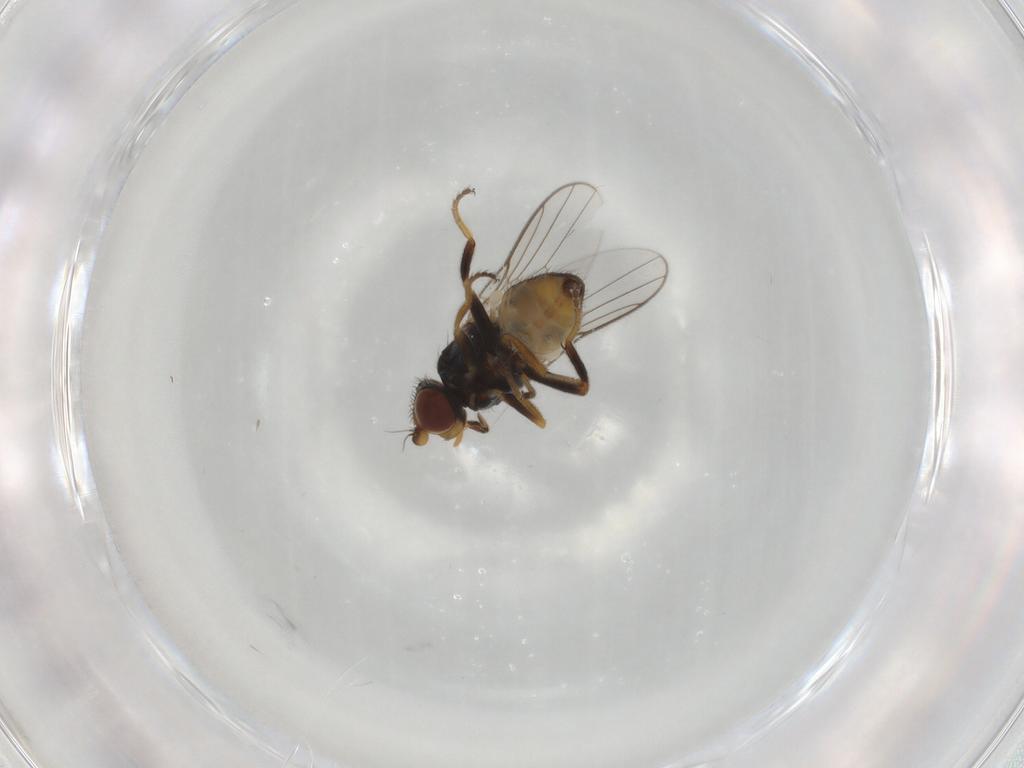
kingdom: Animalia
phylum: Arthropoda
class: Insecta
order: Diptera
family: Chloropidae
